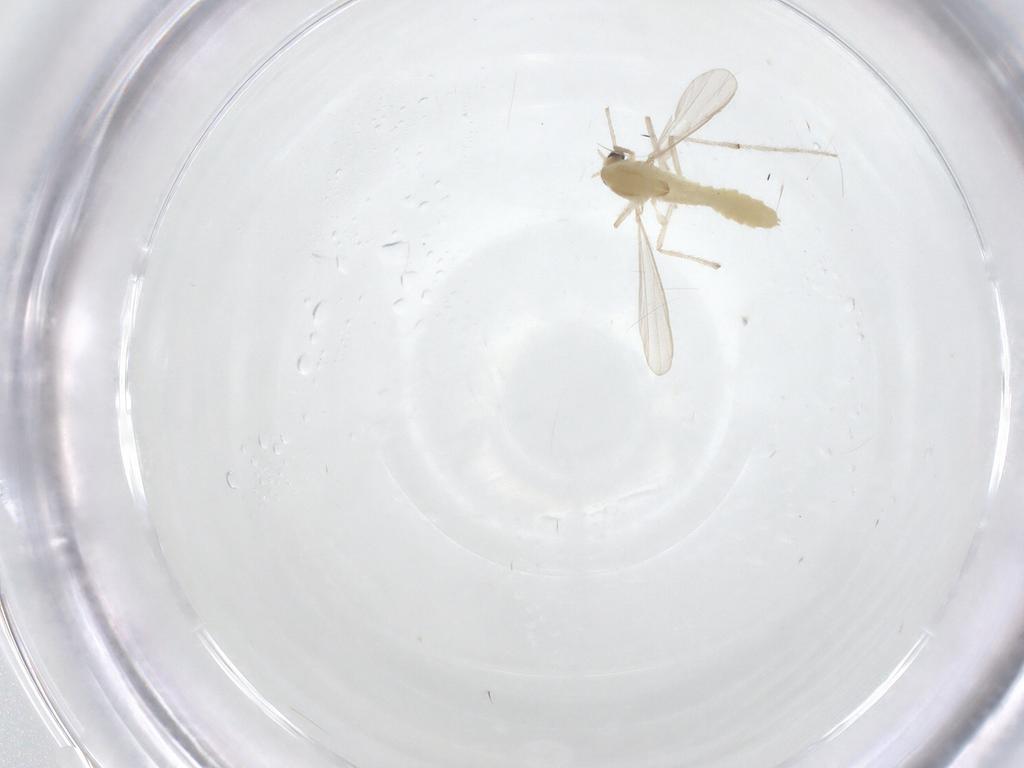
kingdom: Animalia
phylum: Arthropoda
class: Insecta
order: Diptera
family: Chironomidae
